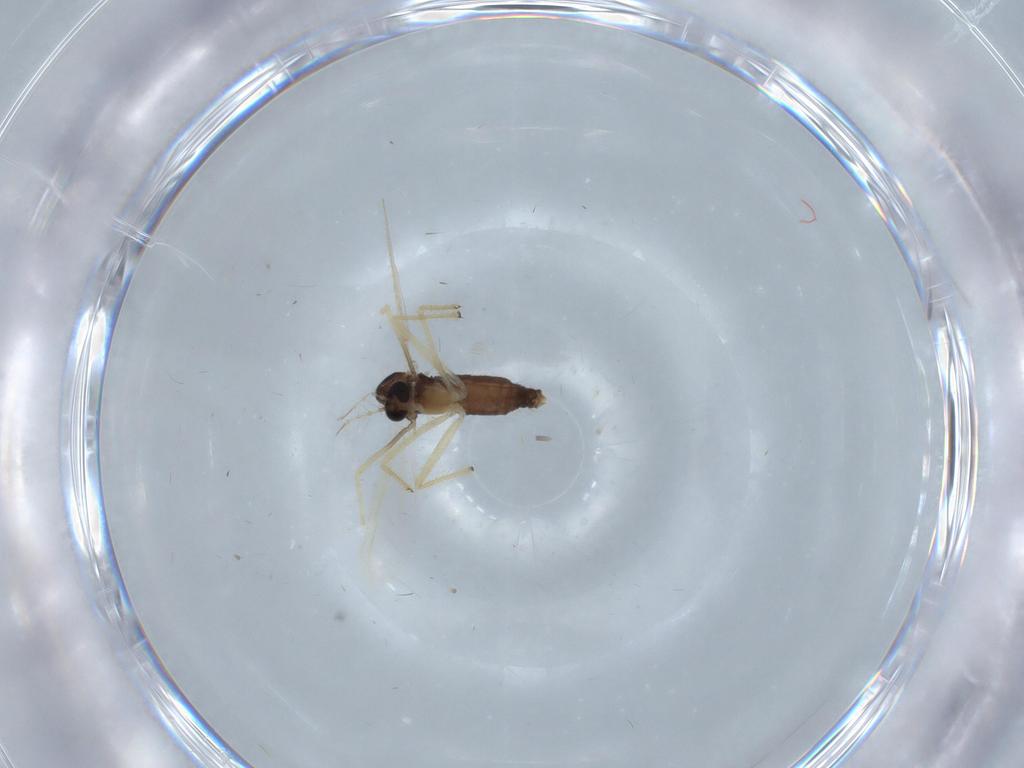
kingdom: Animalia
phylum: Arthropoda
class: Insecta
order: Diptera
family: Chironomidae
